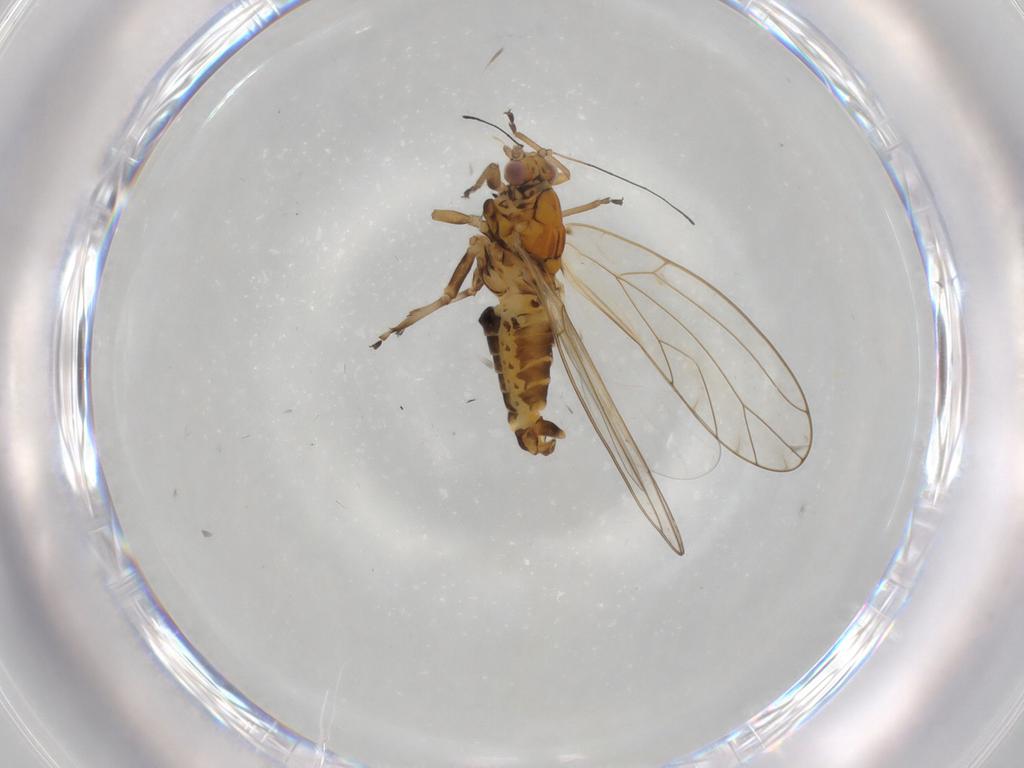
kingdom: Animalia
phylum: Arthropoda
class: Insecta
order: Hemiptera
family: Triozidae
